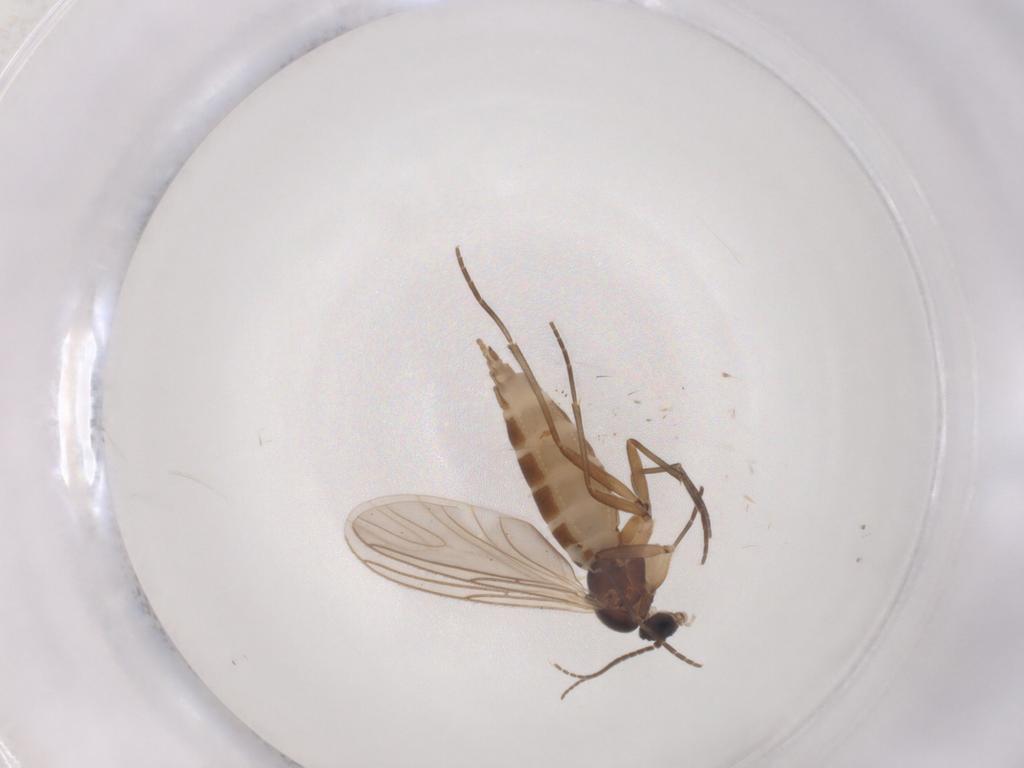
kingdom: Animalia
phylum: Arthropoda
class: Insecta
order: Diptera
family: Sciaridae
